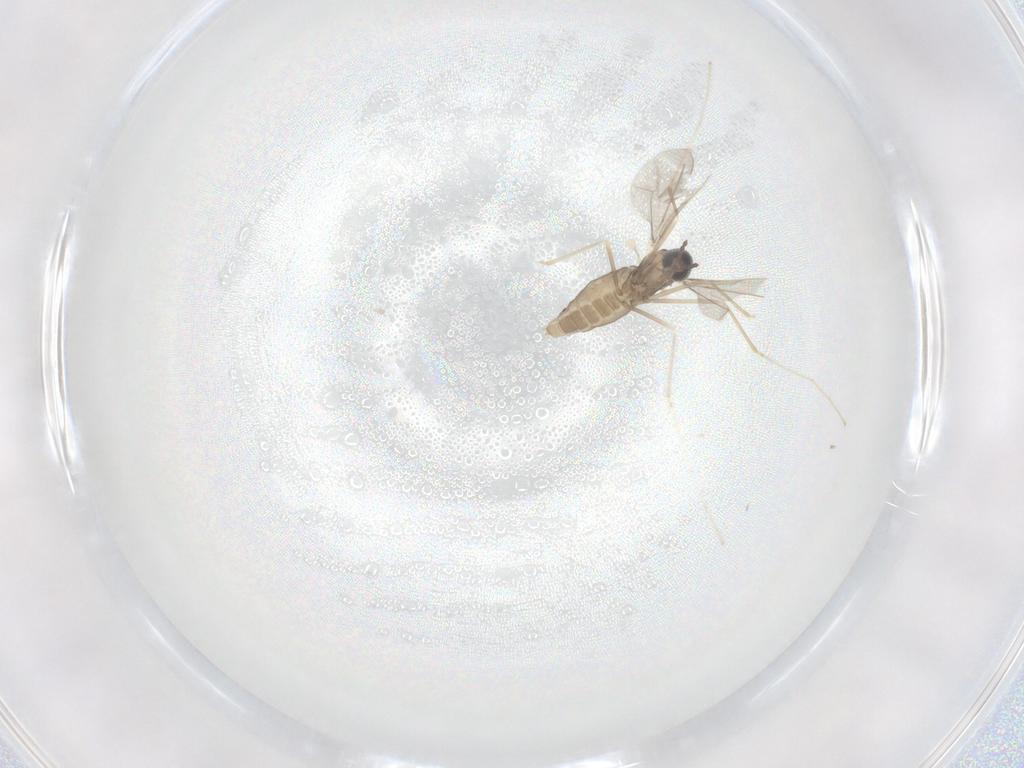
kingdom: Animalia
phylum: Arthropoda
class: Insecta
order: Diptera
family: Cecidomyiidae
